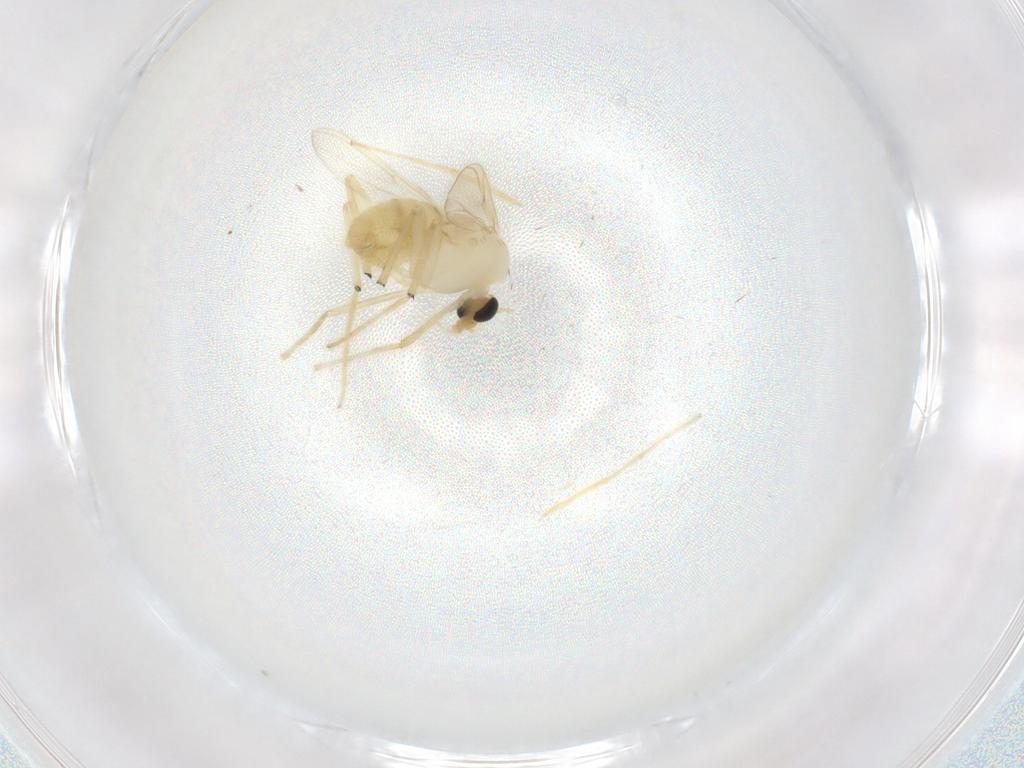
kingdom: Animalia
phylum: Arthropoda
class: Insecta
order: Diptera
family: Chironomidae
